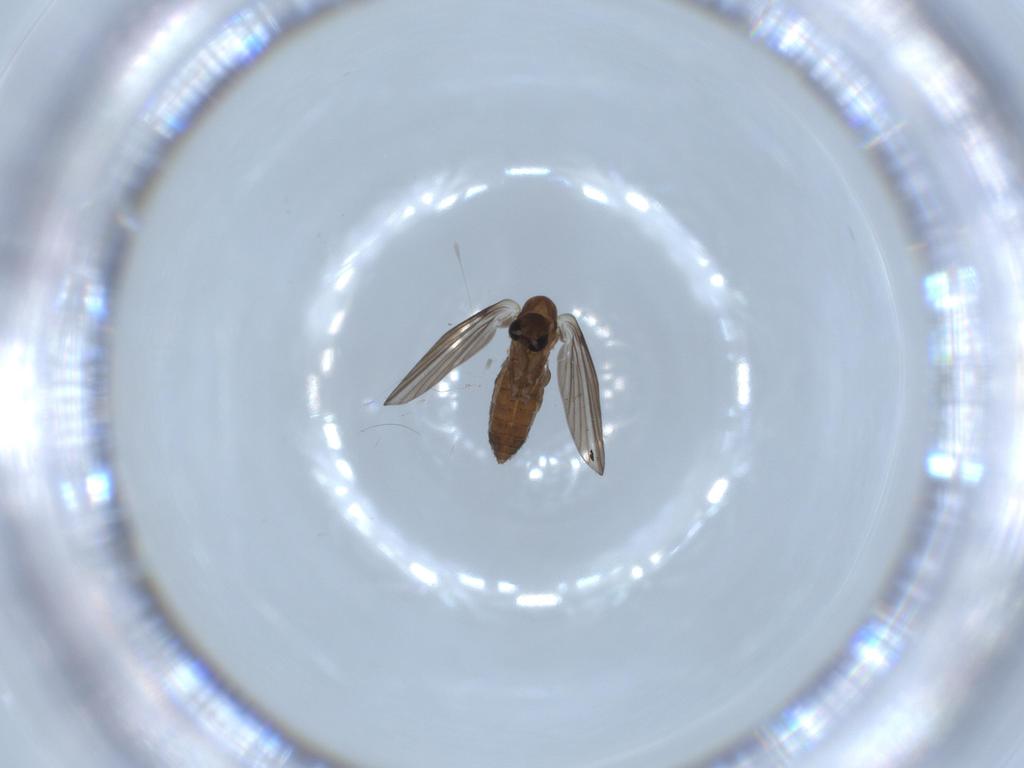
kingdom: Animalia
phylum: Arthropoda
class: Insecta
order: Diptera
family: Psychodidae
